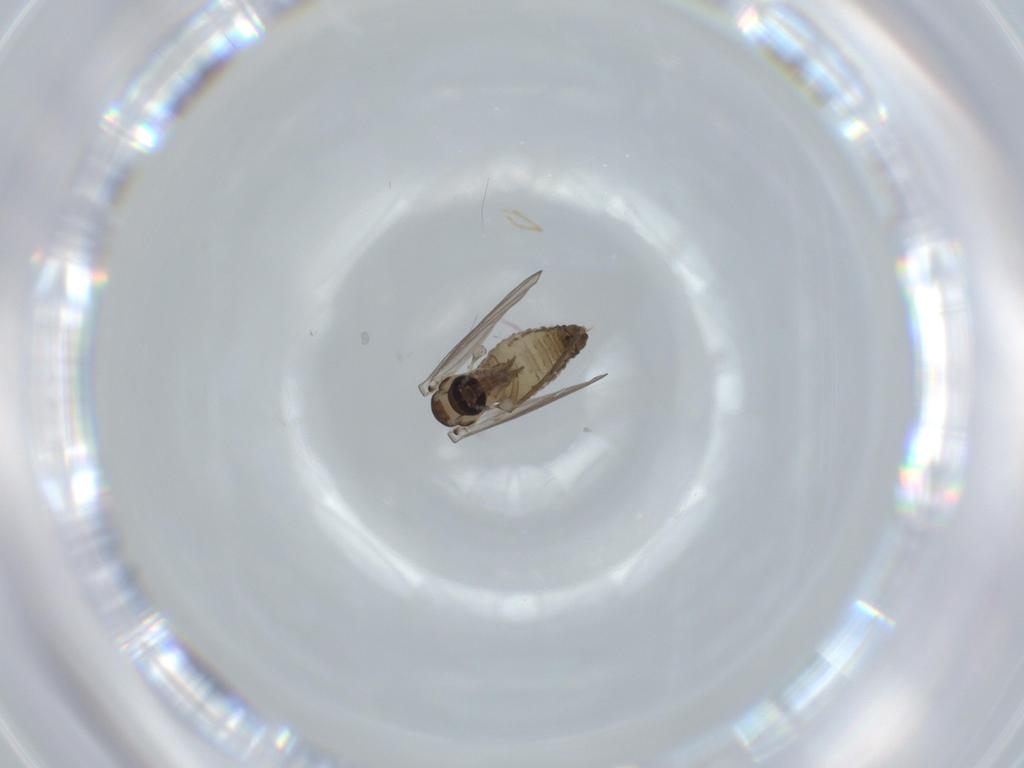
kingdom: Animalia
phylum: Arthropoda
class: Insecta
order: Diptera
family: Psychodidae
